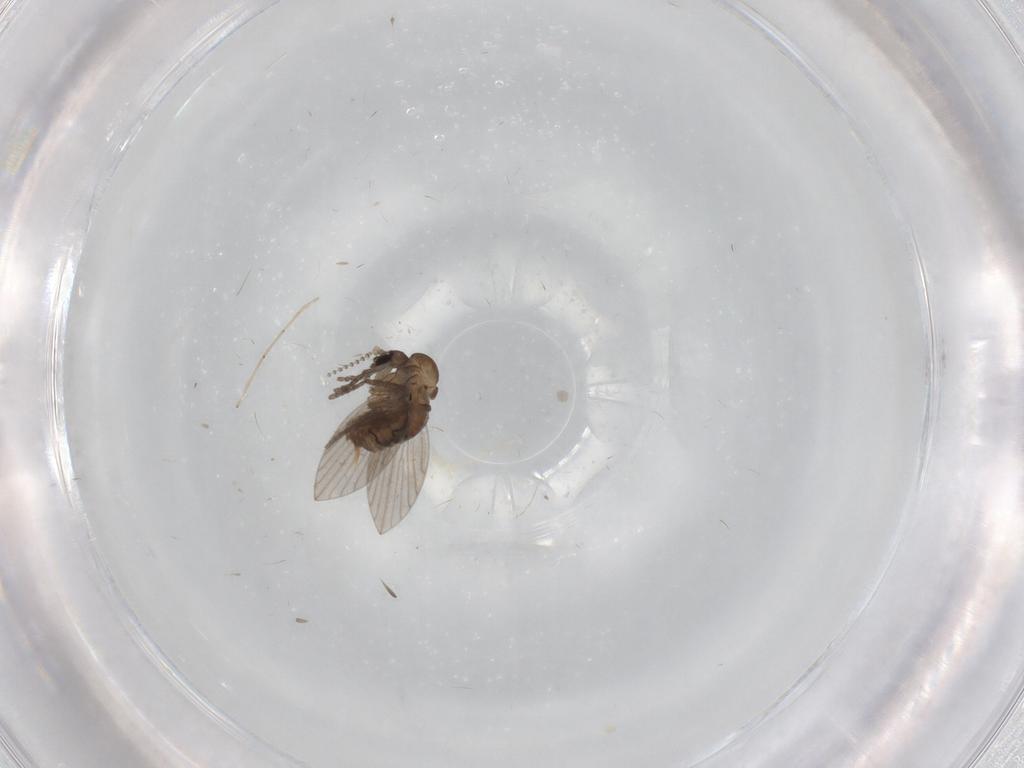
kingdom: Animalia
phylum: Arthropoda
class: Insecta
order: Diptera
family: Chironomidae
